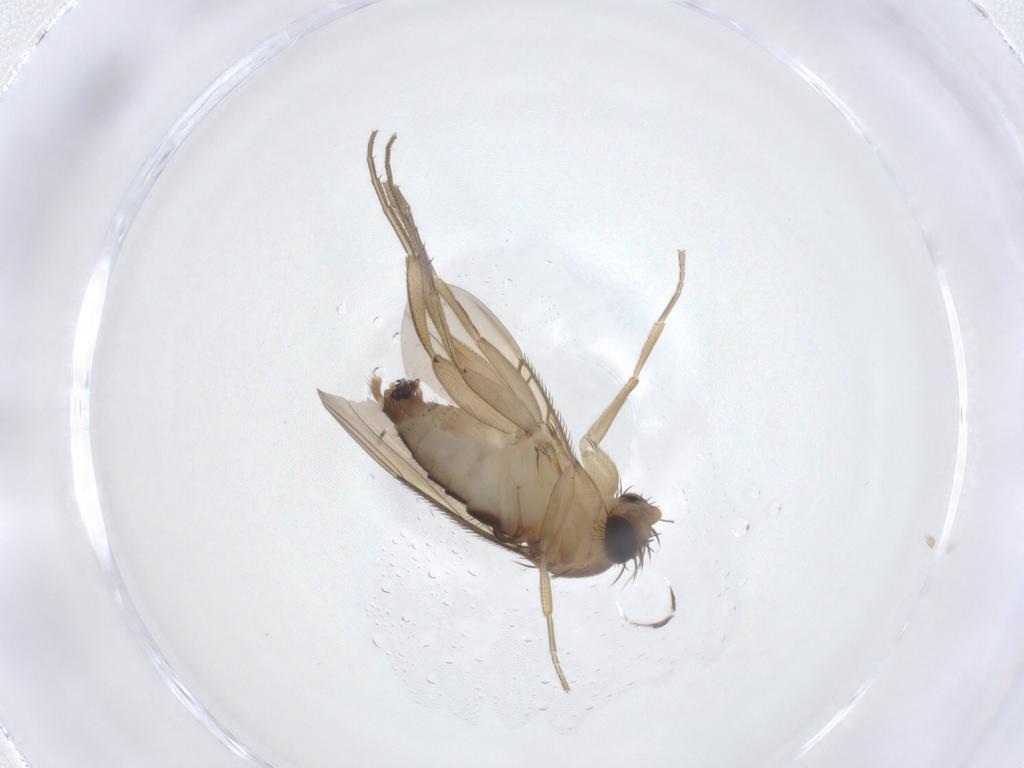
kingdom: Animalia
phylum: Arthropoda
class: Insecta
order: Diptera
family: Phoridae
